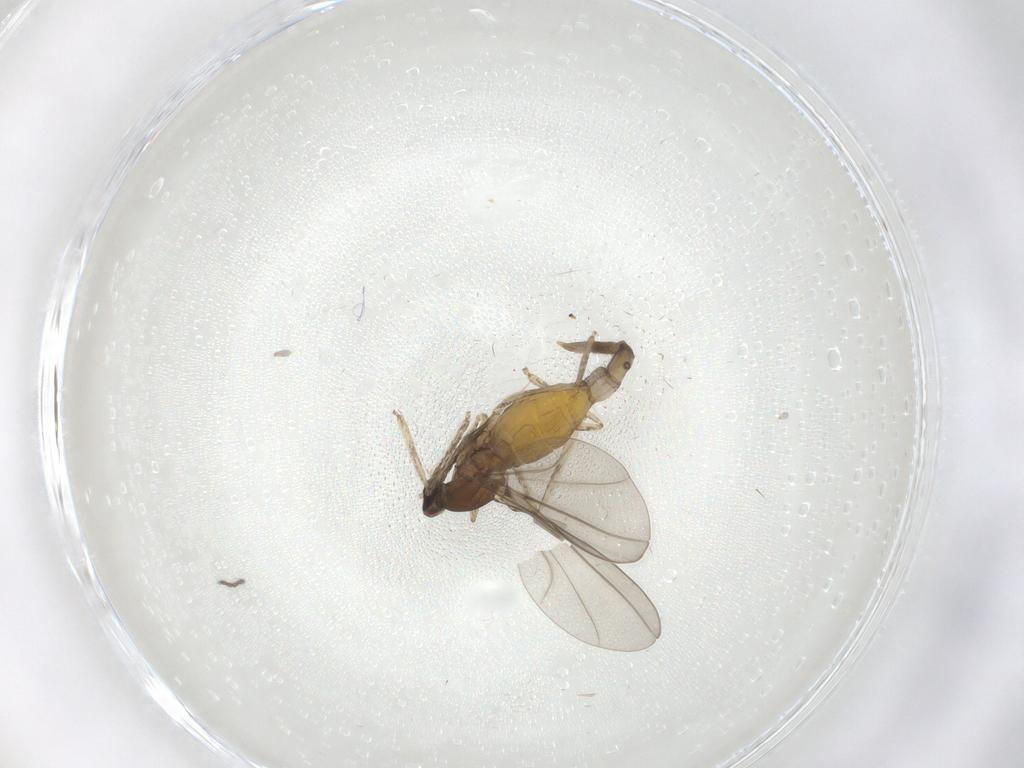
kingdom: Animalia
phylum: Arthropoda
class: Insecta
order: Diptera
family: Cecidomyiidae
